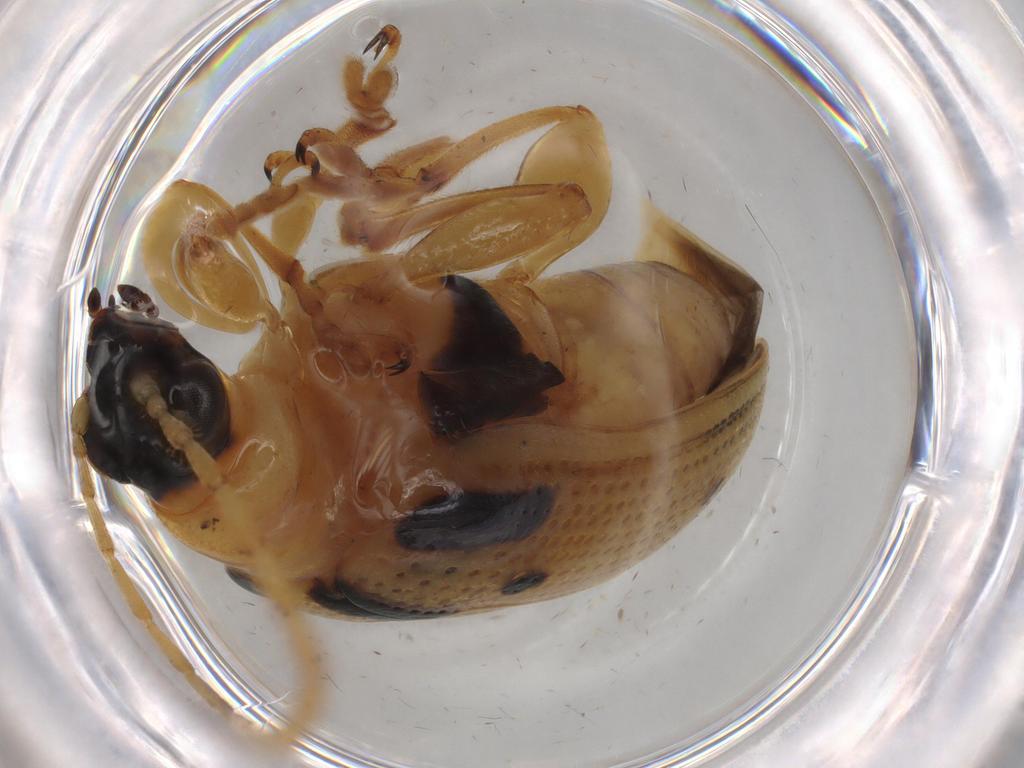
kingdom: Animalia
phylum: Arthropoda
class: Insecta
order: Coleoptera
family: Chrysomelidae
